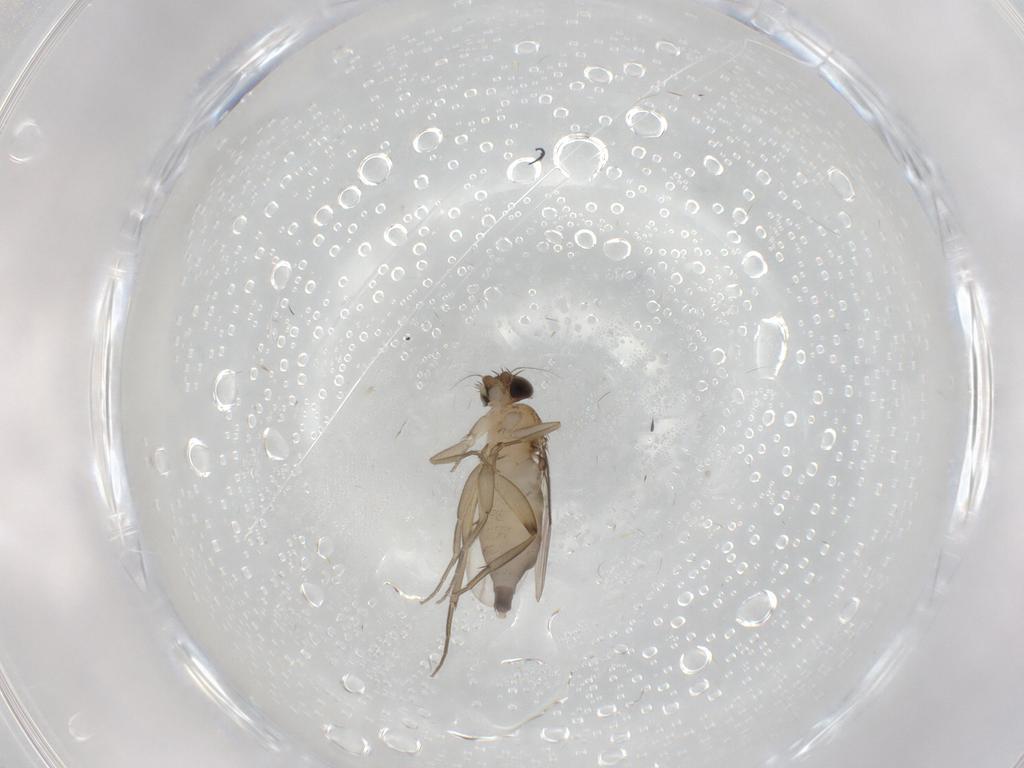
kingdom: Animalia
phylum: Arthropoda
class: Insecta
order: Diptera
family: Phoridae
